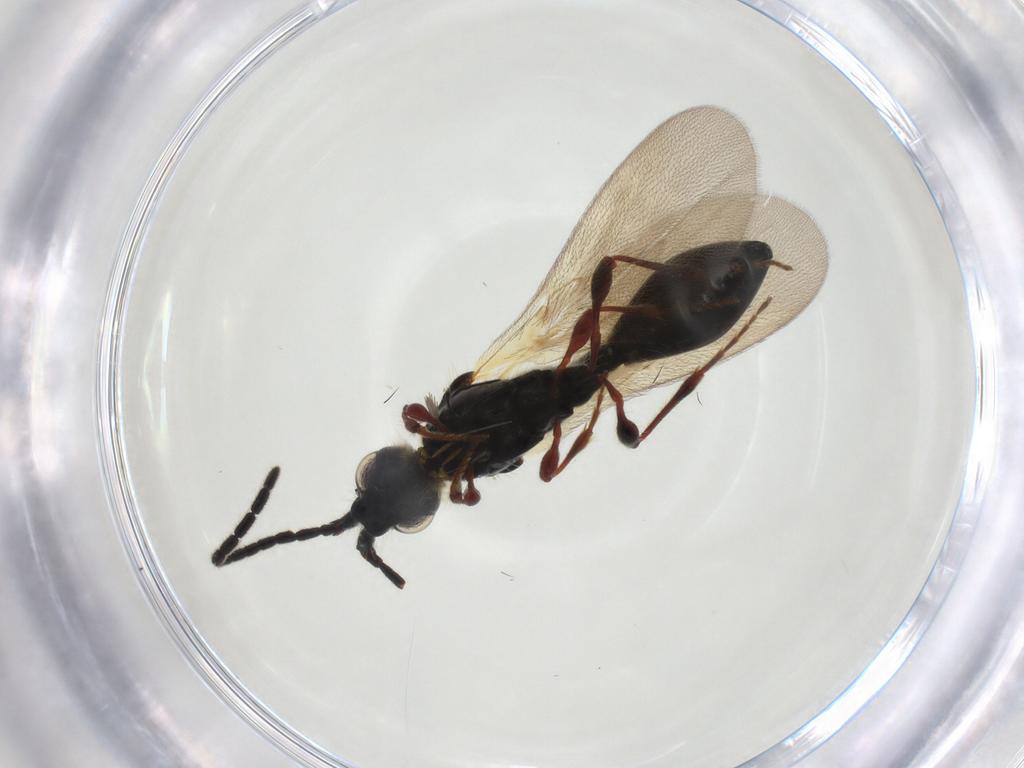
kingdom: Animalia
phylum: Arthropoda
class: Insecta
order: Hymenoptera
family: Diapriidae
